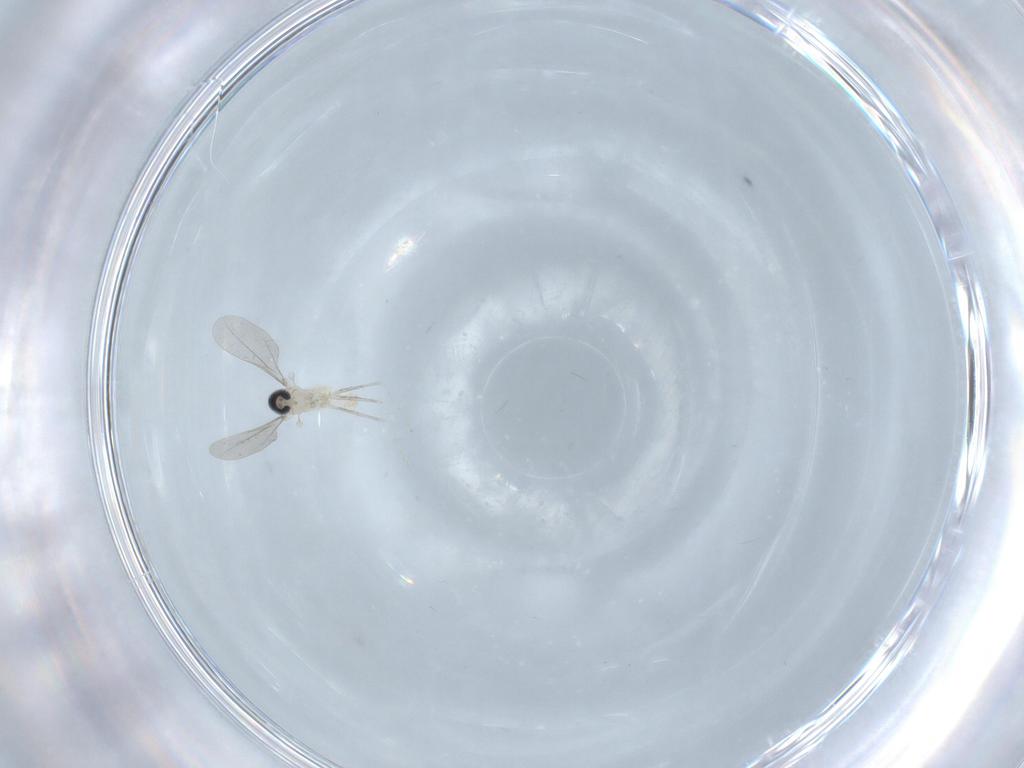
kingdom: Animalia
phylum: Arthropoda
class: Insecta
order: Diptera
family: Cecidomyiidae
